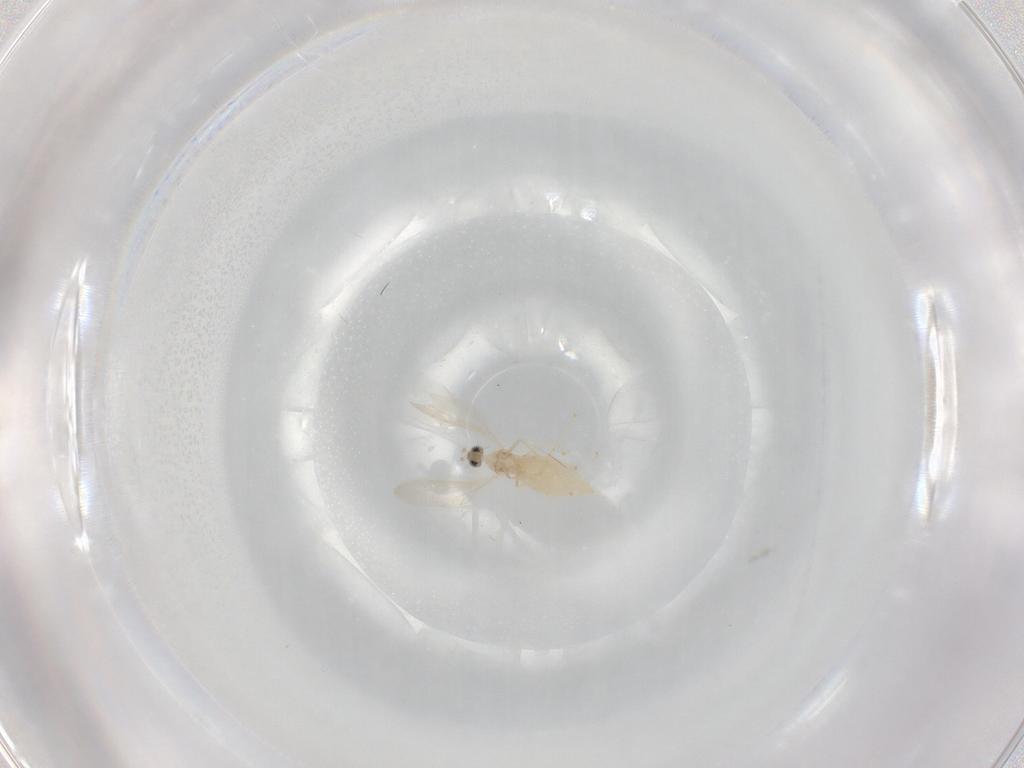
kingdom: Animalia
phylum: Arthropoda
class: Insecta
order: Diptera
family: Cecidomyiidae
